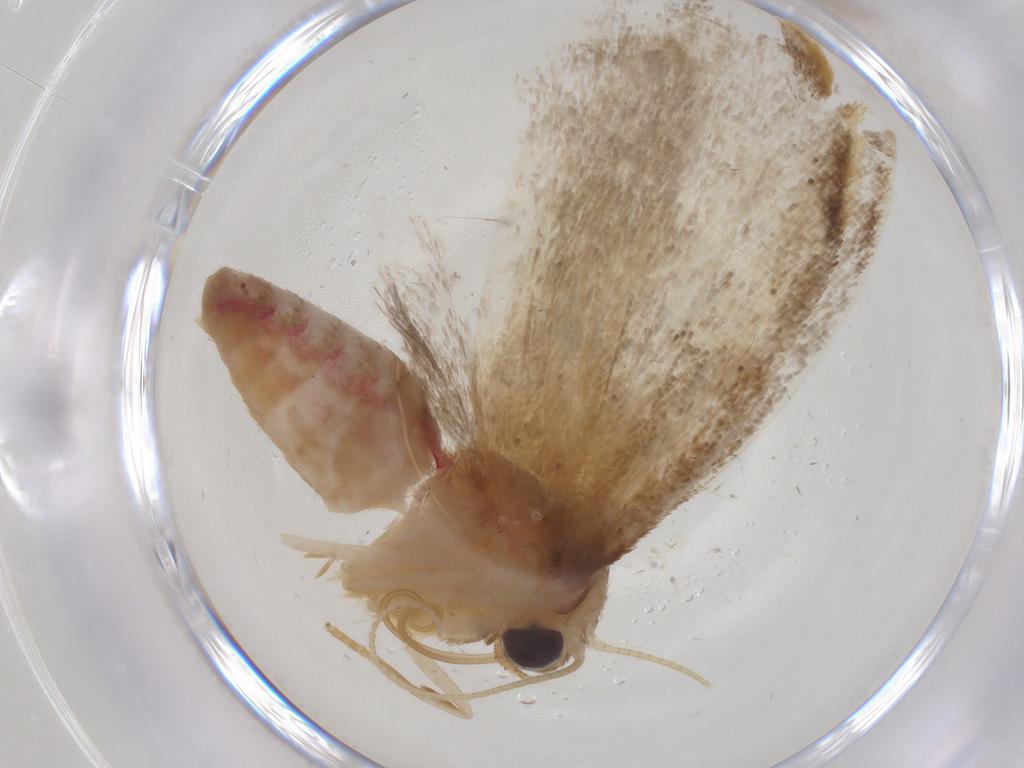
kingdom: Animalia
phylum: Arthropoda
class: Insecta
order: Lepidoptera
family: Erebidae
